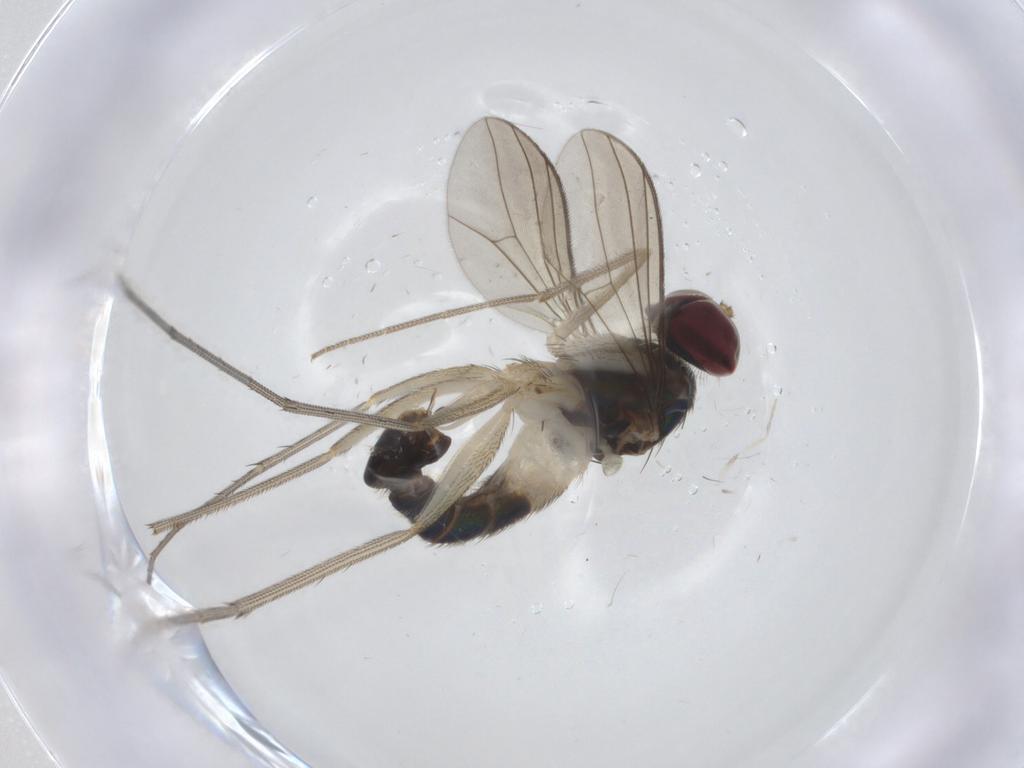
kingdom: Animalia
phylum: Arthropoda
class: Insecta
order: Diptera
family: Dolichopodidae
